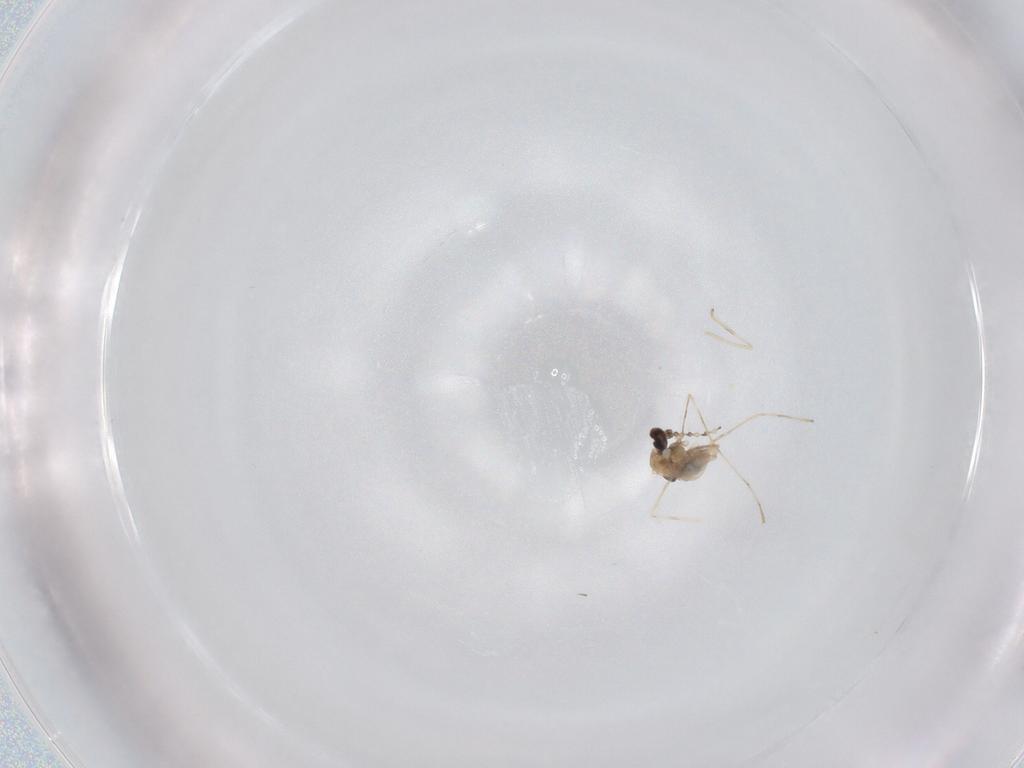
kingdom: Animalia
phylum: Arthropoda
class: Insecta
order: Diptera
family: Cecidomyiidae
